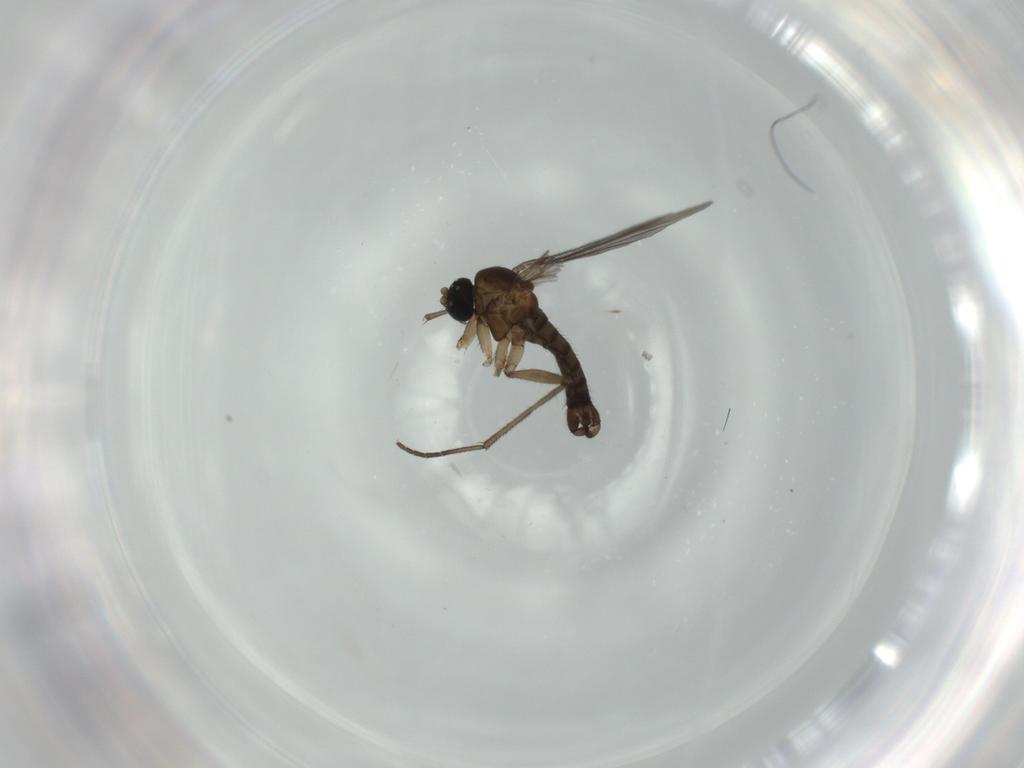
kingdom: Animalia
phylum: Arthropoda
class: Insecta
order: Diptera
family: Sciaridae
